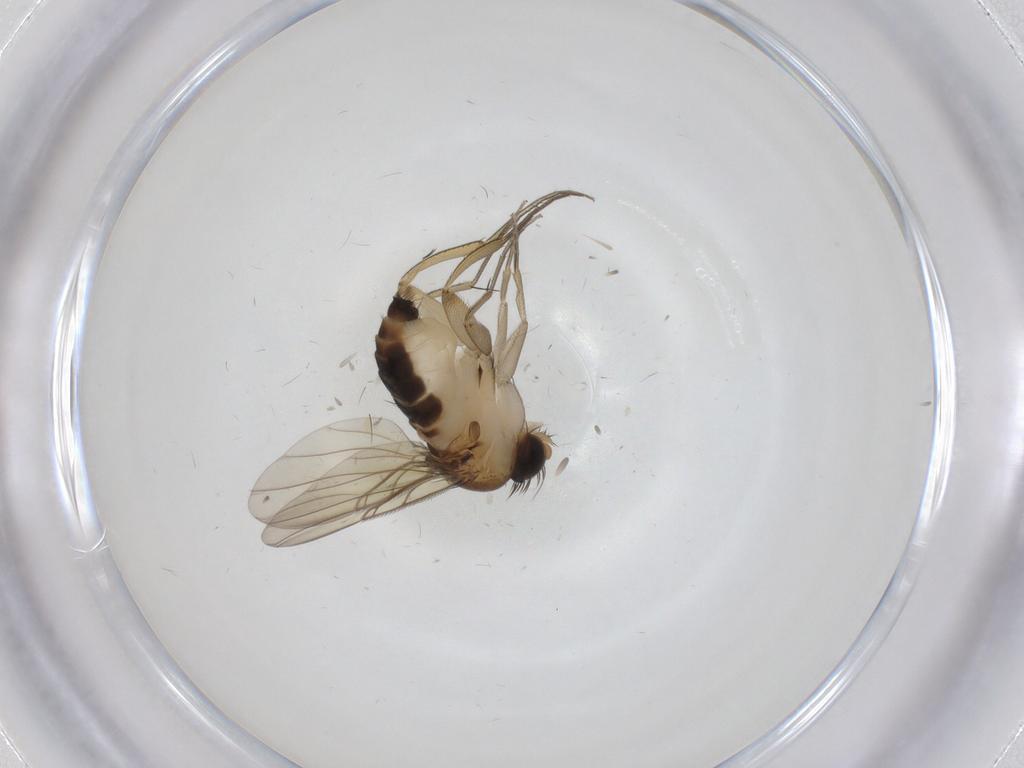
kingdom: Animalia
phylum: Arthropoda
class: Insecta
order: Diptera
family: Phoridae
